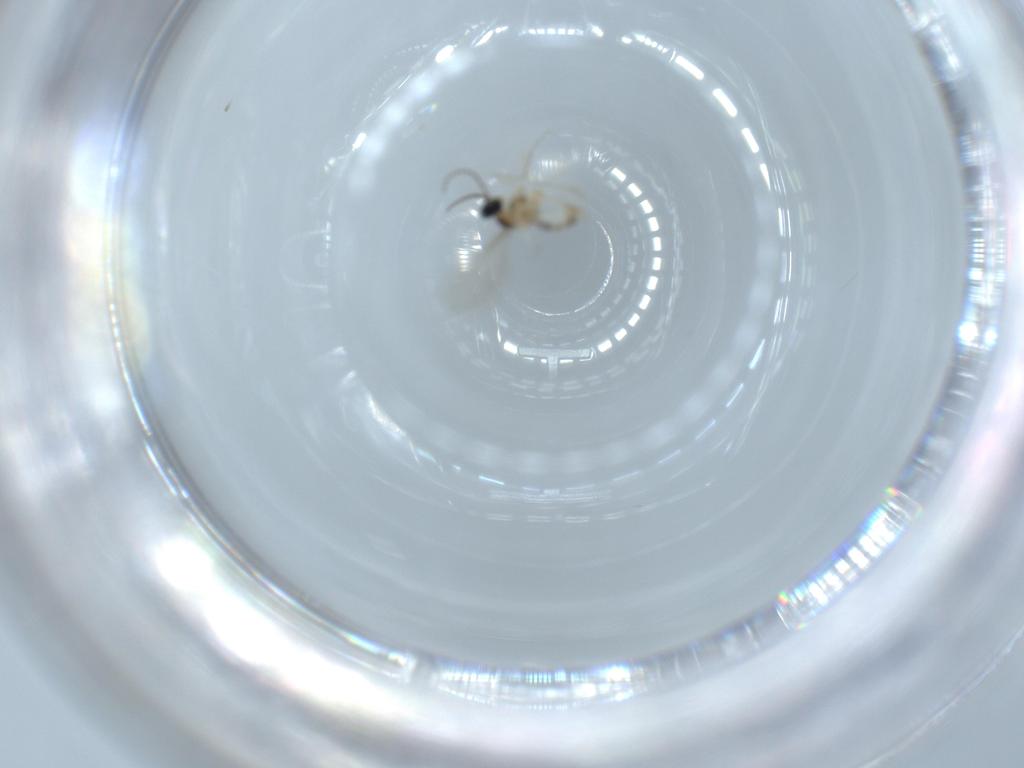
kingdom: Animalia
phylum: Arthropoda
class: Insecta
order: Diptera
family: Cecidomyiidae
